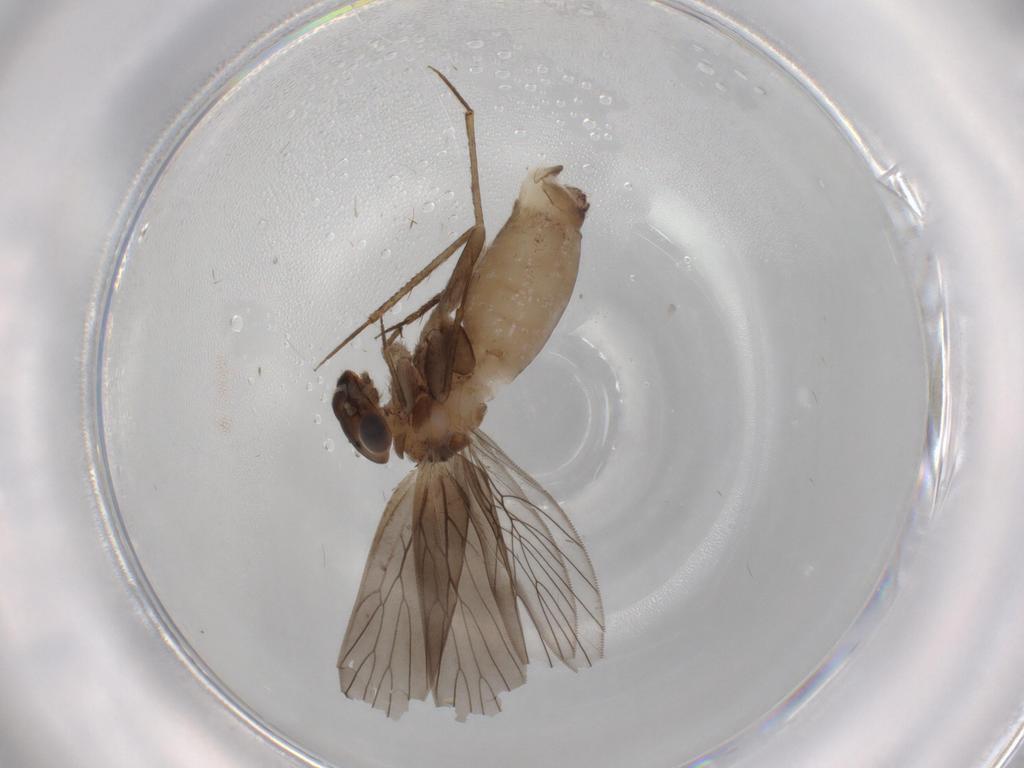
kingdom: Animalia
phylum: Arthropoda
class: Insecta
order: Psocodea
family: Lepidopsocidae
